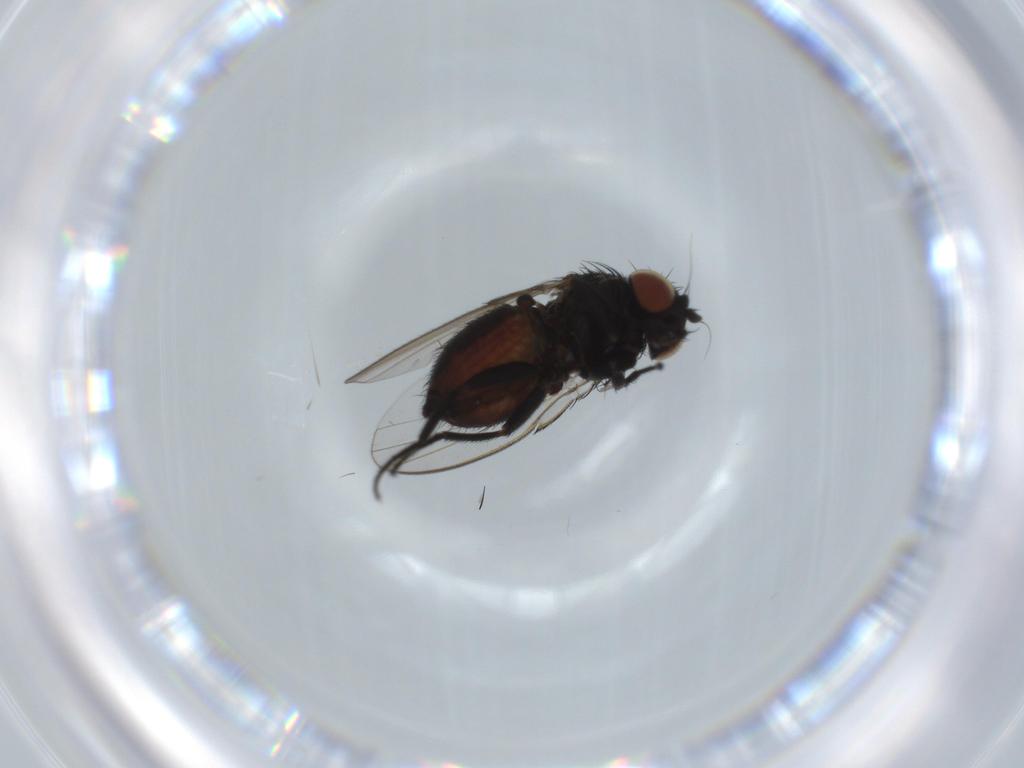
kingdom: Animalia
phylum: Arthropoda
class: Insecta
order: Diptera
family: Milichiidae
